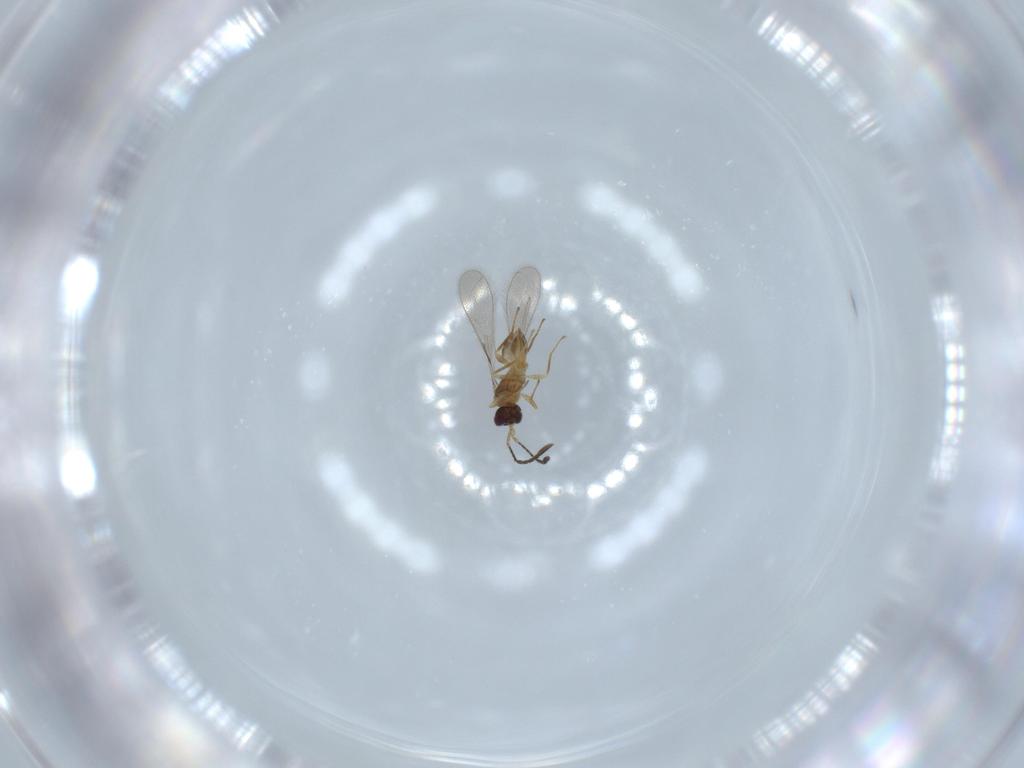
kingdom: Animalia
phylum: Arthropoda
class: Insecta
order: Hymenoptera
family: Mymaridae
